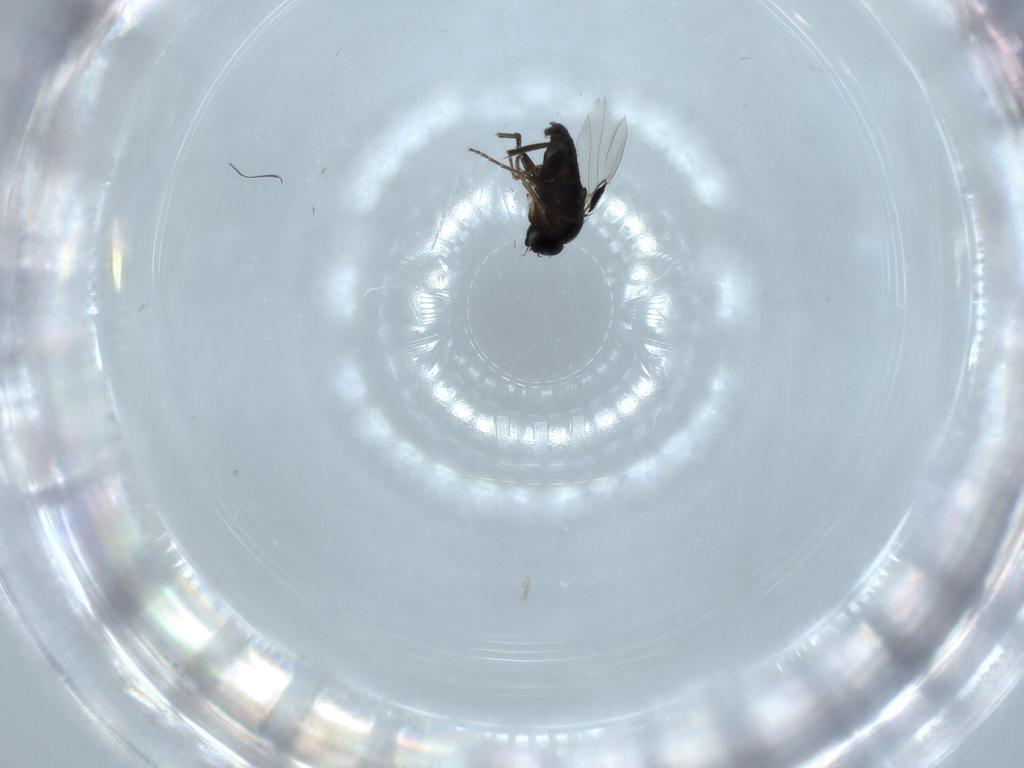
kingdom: Animalia
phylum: Arthropoda
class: Insecta
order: Diptera
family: Phoridae
